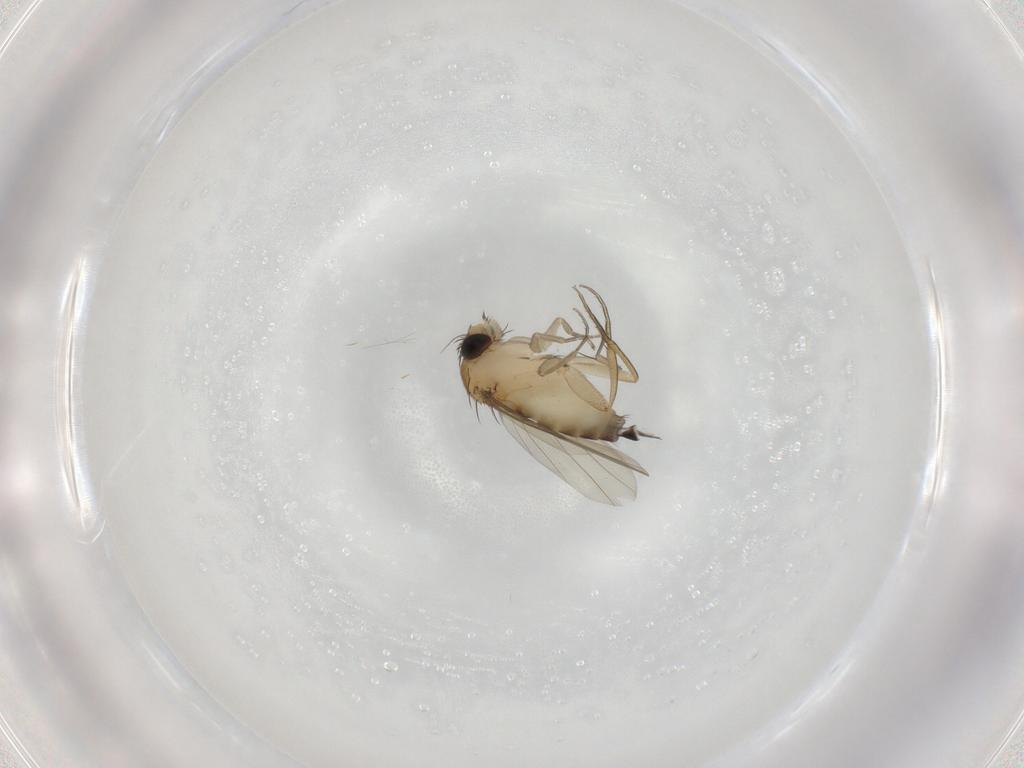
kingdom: Animalia
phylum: Arthropoda
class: Insecta
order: Diptera
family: Phoridae
